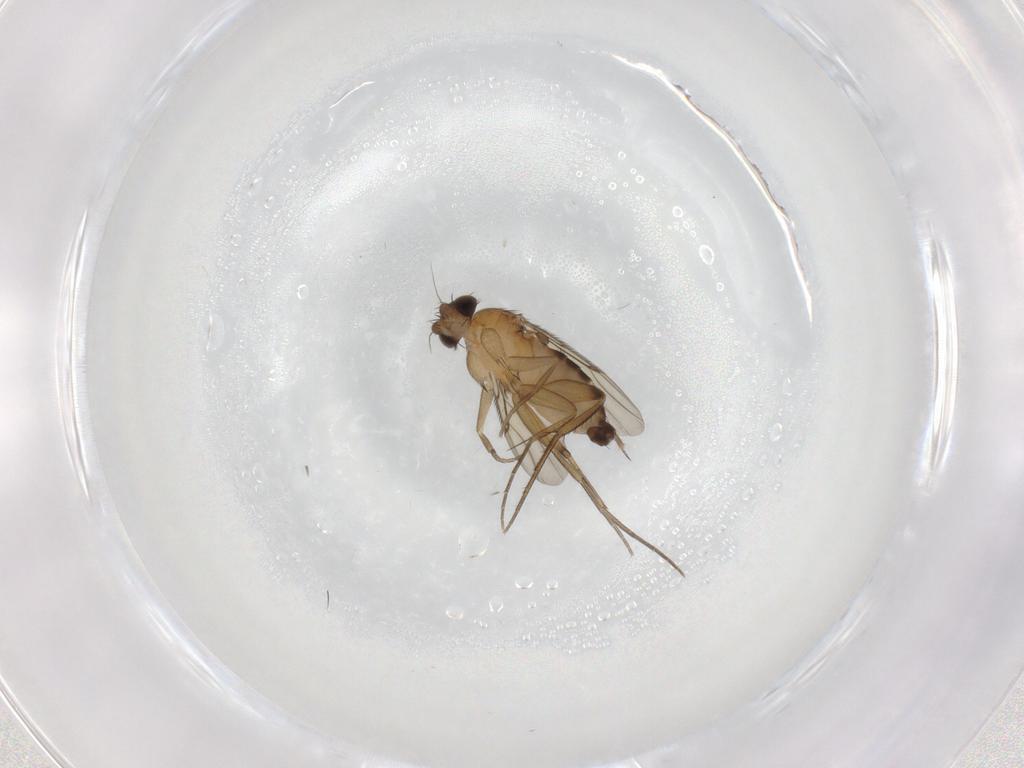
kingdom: Animalia
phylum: Arthropoda
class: Insecta
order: Diptera
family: Phoridae
